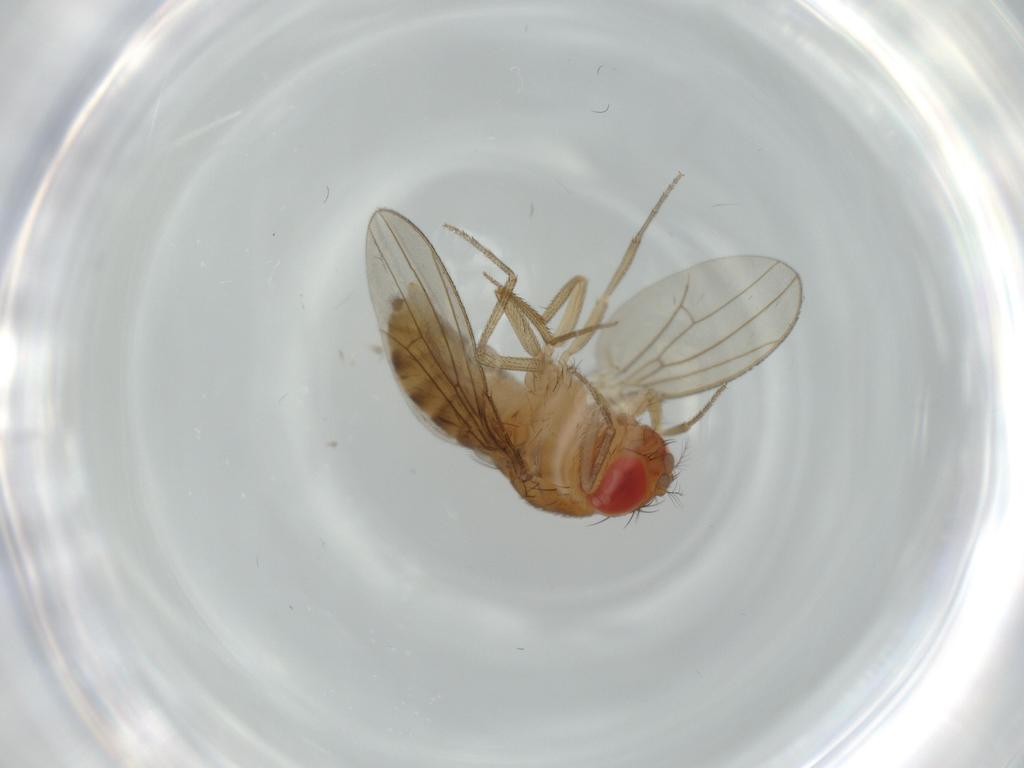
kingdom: Animalia
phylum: Arthropoda
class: Insecta
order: Diptera
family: Drosophilidae
